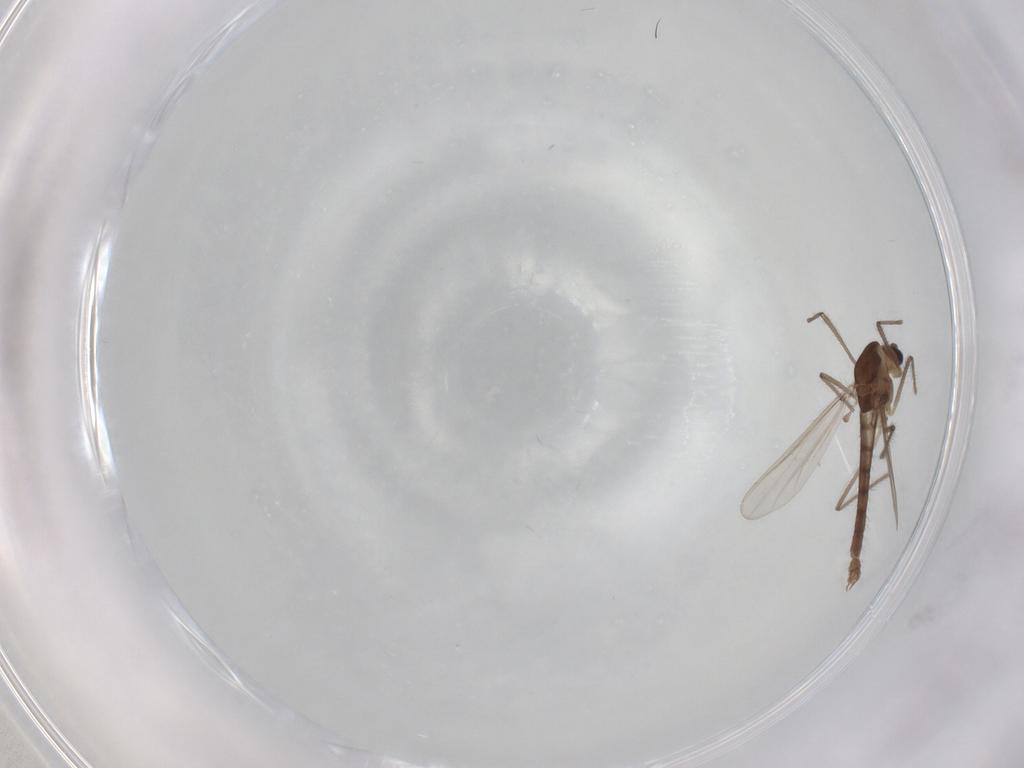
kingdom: Animalia
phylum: Arthropoda
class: Insecta
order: Diptera
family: Chironomidae
